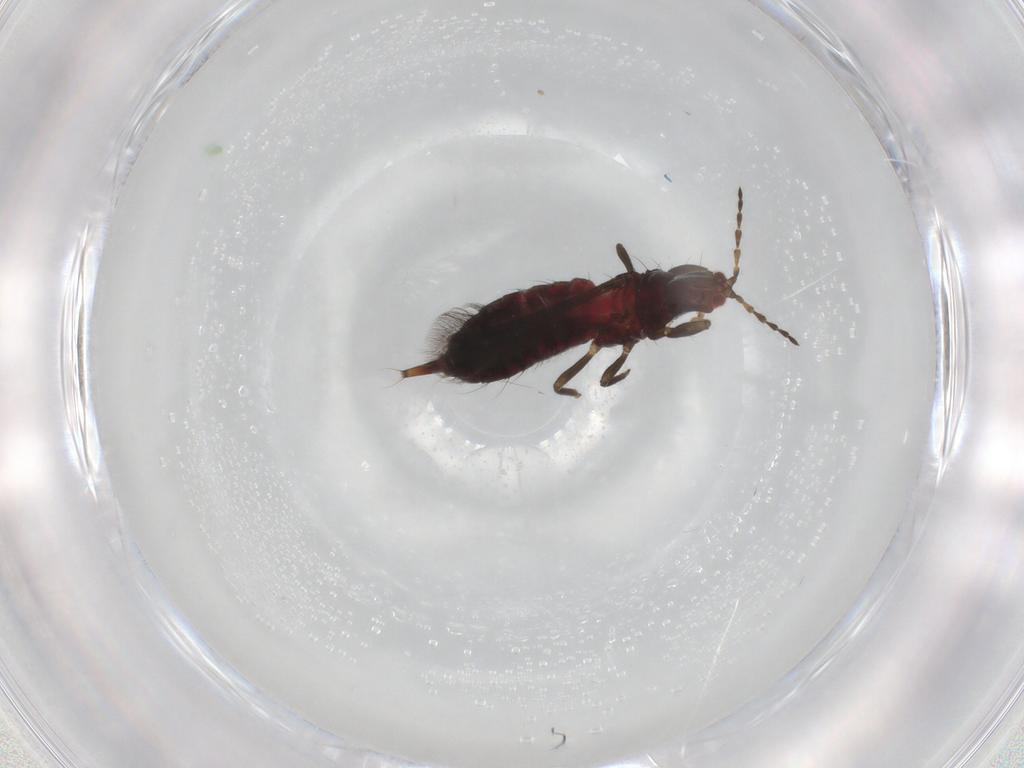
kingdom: Animalia
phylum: Arthropoda
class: Insecta
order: Thysanoptera
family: Phlaeothripidae
